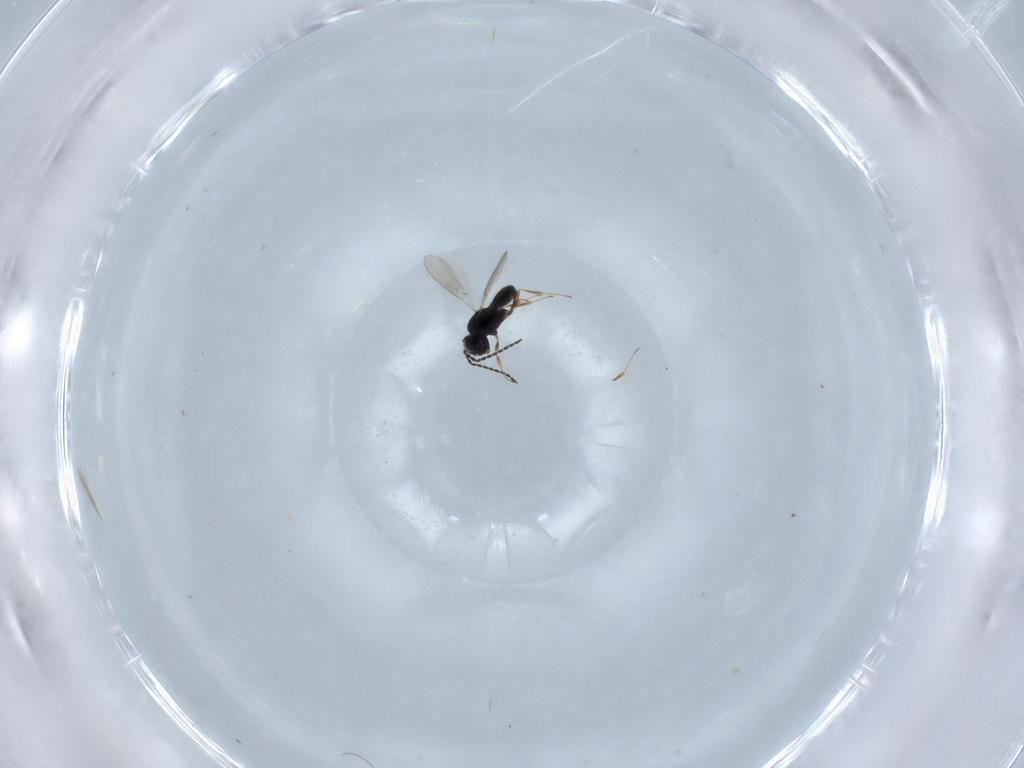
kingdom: Animalia
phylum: Arthropoda
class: Insecta
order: Hymenoptera
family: Scelionidae
